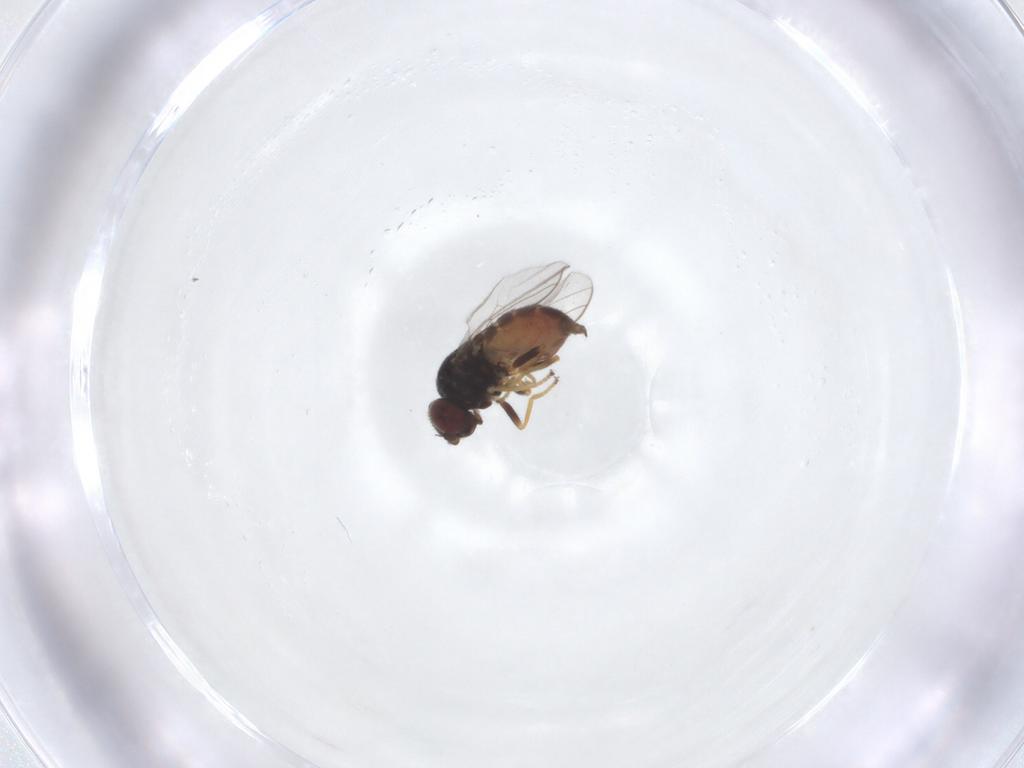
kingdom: Animalia
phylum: Arthropoda
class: Insecta
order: Diptera
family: Chloropidae
